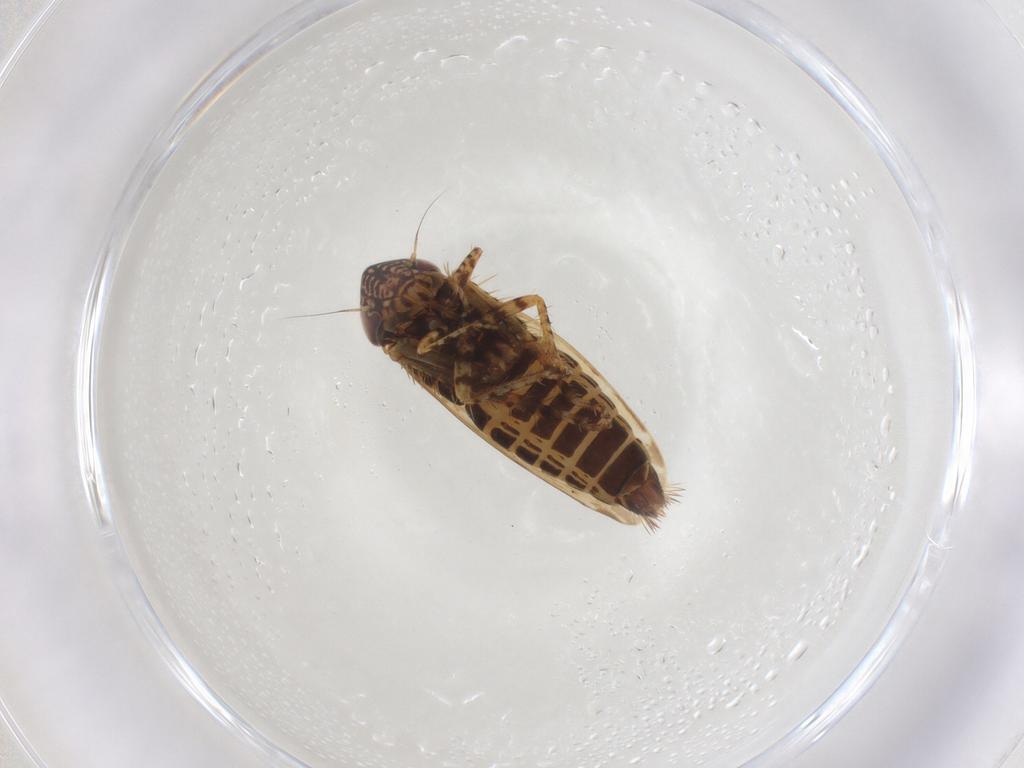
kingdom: Animalia
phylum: Arthropoda
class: Insecta
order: Hemiptera
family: Cicadellidae
